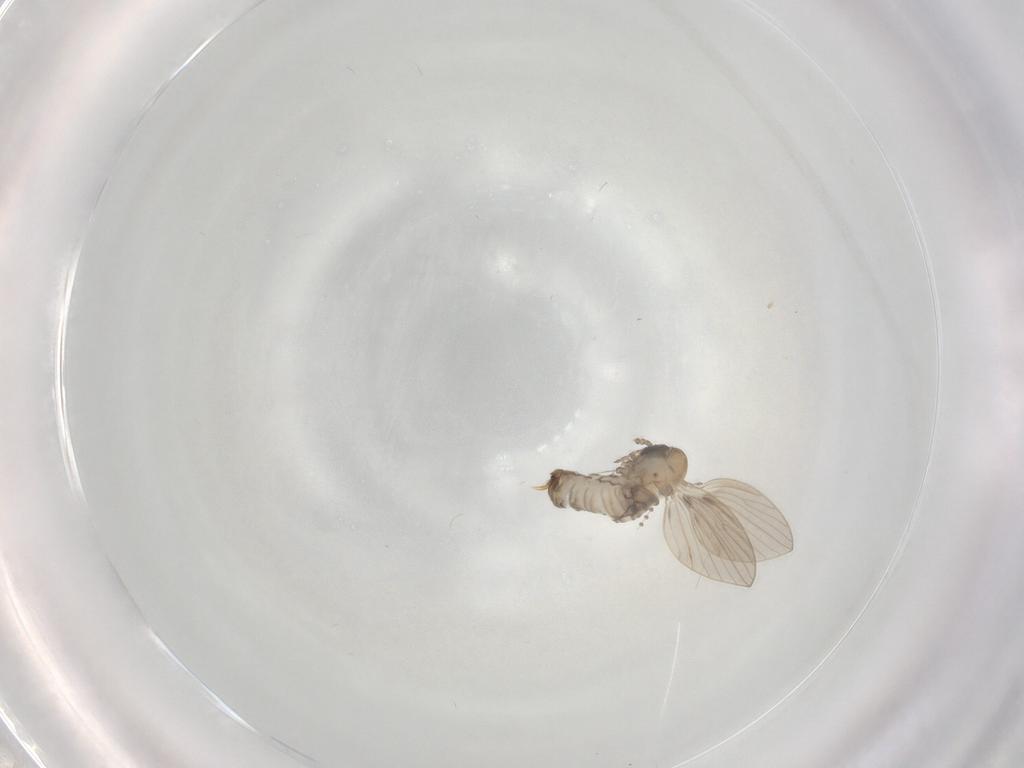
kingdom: Animalia
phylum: Arthropoda
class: Insecta
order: Diptera
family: Psychodidae
